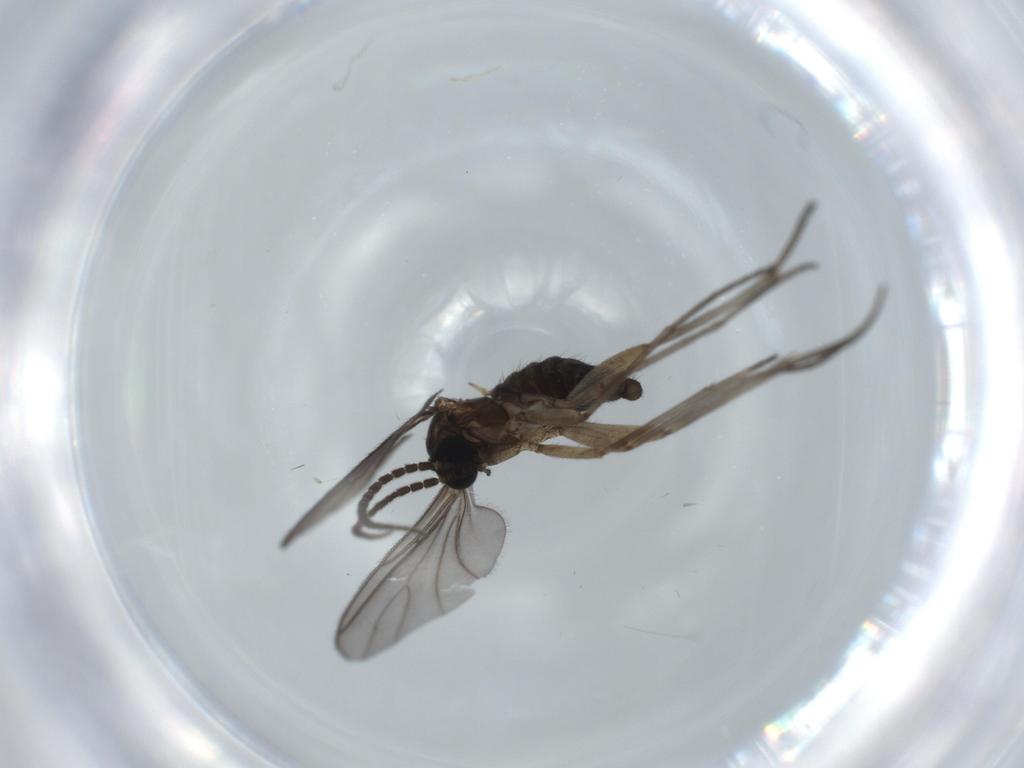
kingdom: Animalia
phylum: Arthropoda
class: Insecta
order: Diptera
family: Sciaridae
